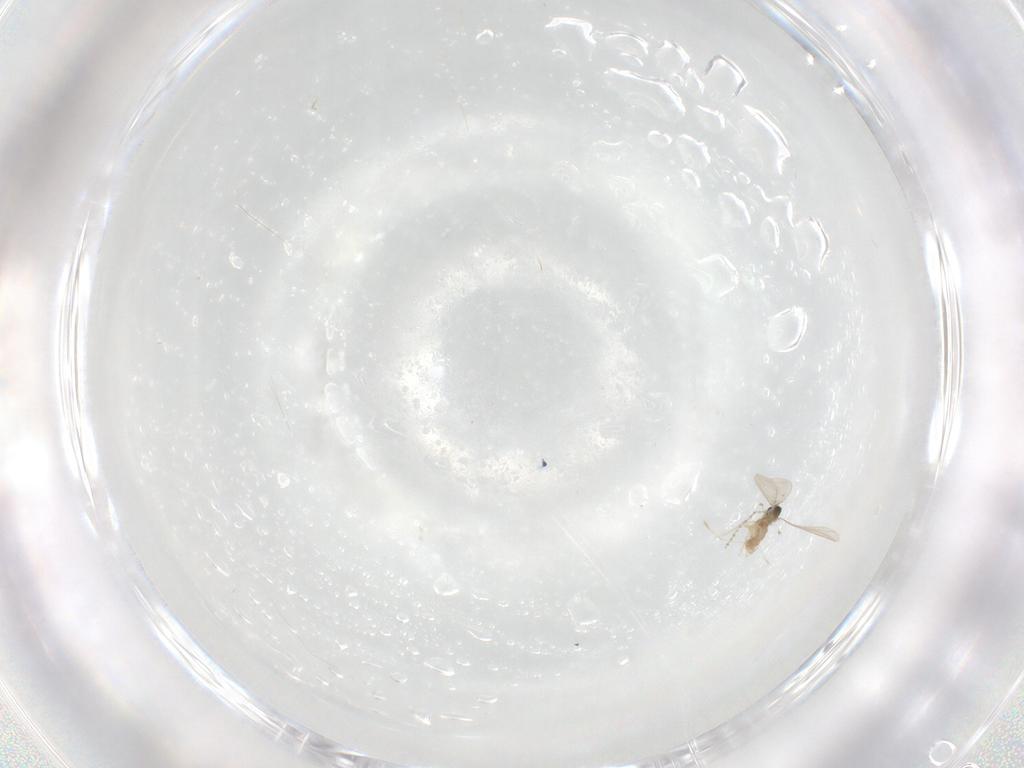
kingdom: Animalia
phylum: Arthropoda
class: Insecta
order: Diptera
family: Cecidomyiidae
